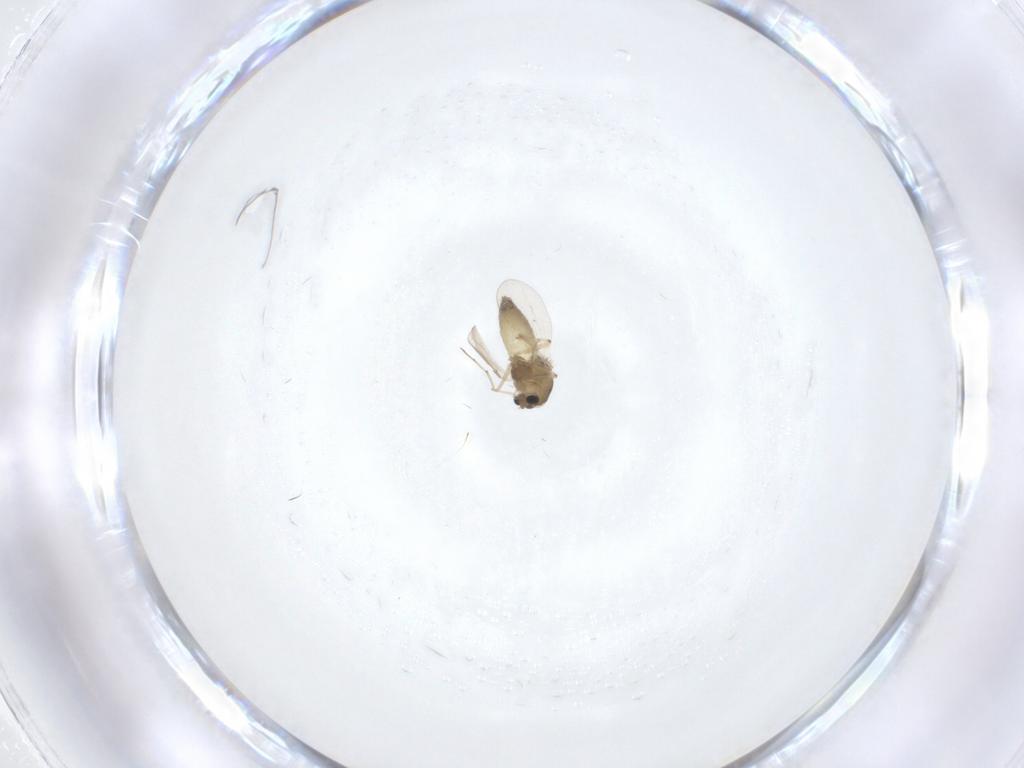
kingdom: Animalia
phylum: Arthropoda
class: Insecta
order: Diptera
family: Chironomidae
